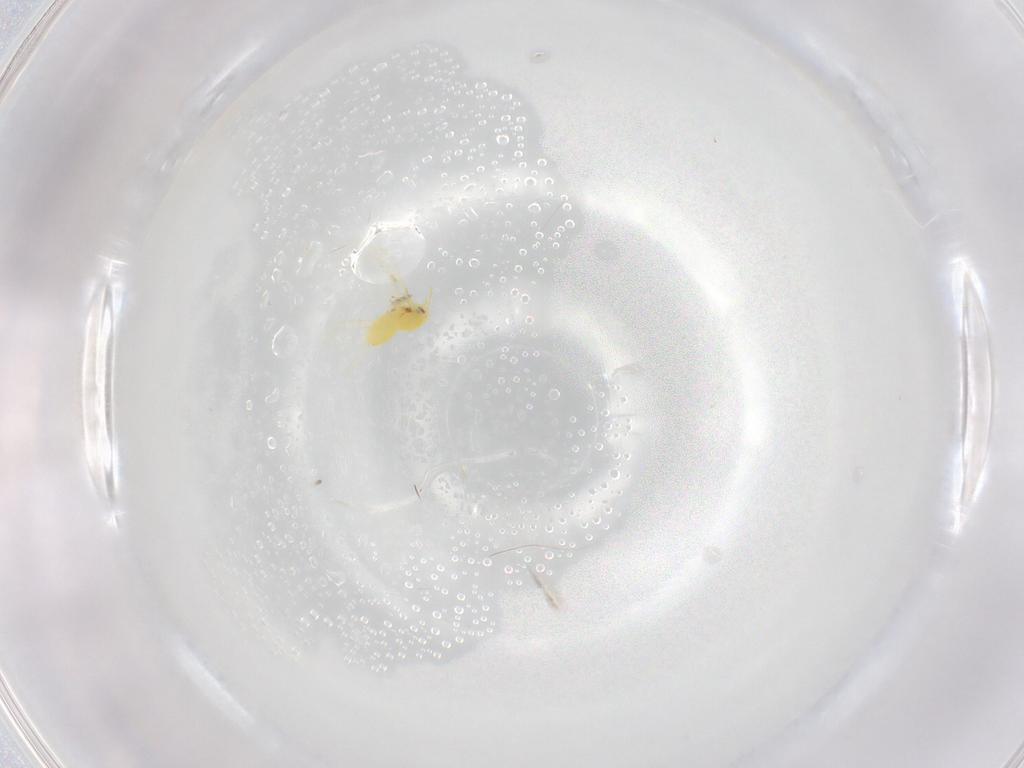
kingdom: Animalia
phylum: Arthropoda
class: Insecta
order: Hemiptera
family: Aleyrodidae
